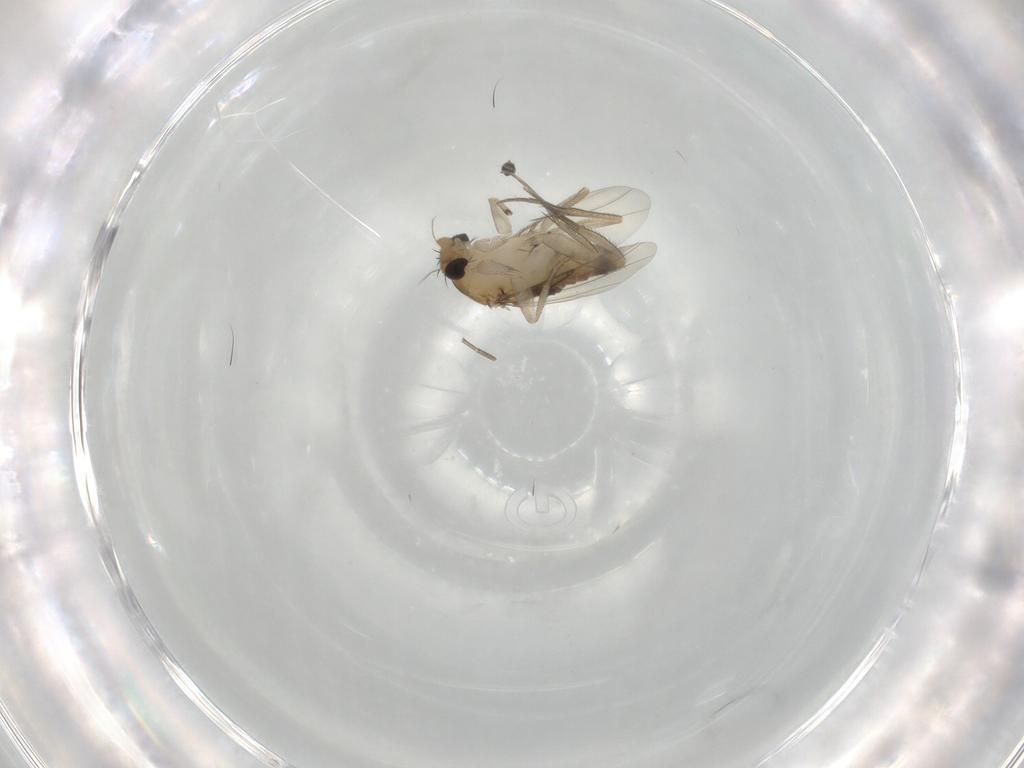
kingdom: Animalia
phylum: Arthropoda
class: Insecta
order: Diptera
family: Phoridae
